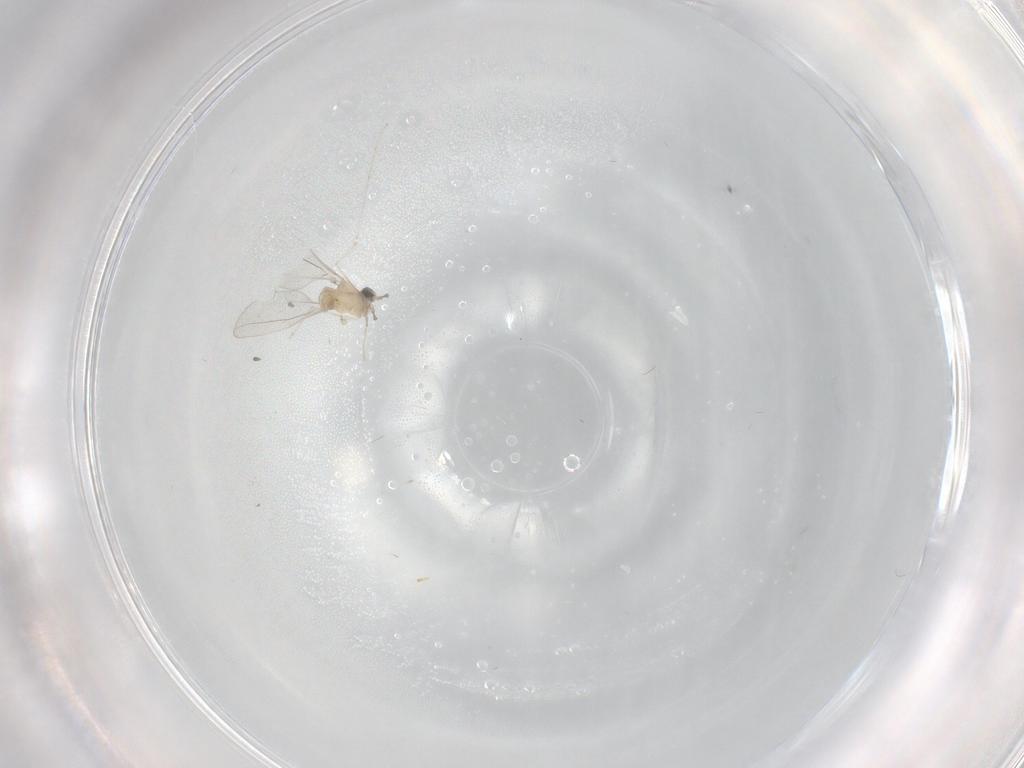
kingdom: Animalia
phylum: Arthropoda
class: Insecta
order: Diptera
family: Cecidomyiidae
